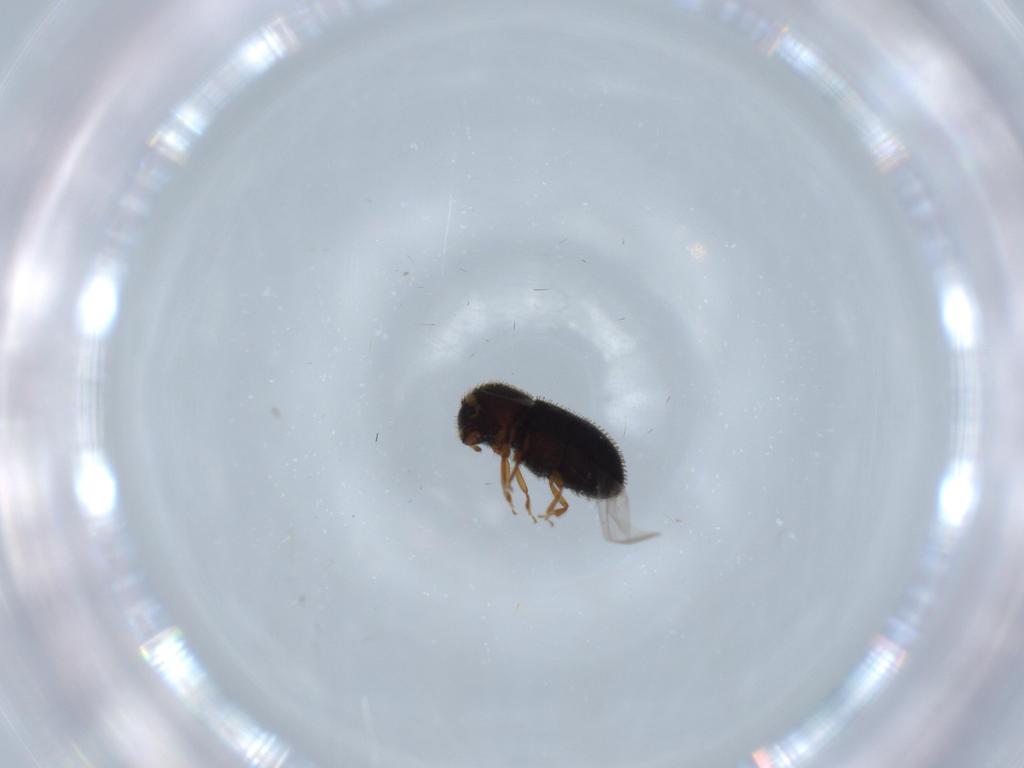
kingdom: Animalia
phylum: Arthropoda
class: Insecta
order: Coleoptera
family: Curculionidae
